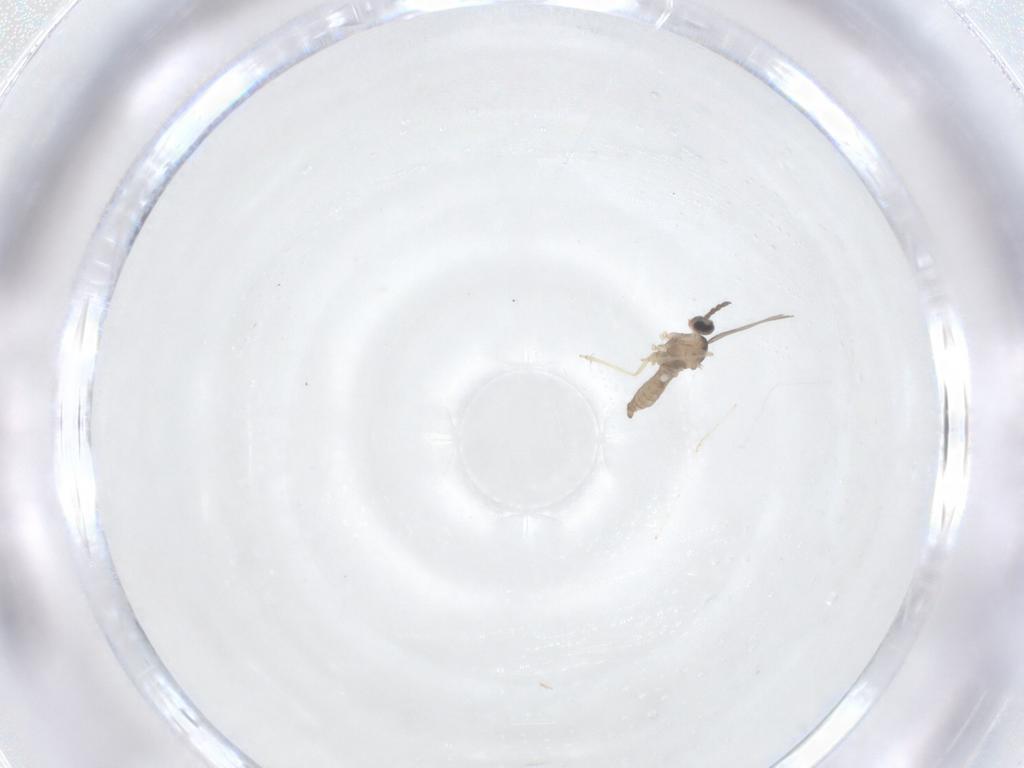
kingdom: Animalia
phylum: Arthropoda
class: Insecta
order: Diptera
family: Cecidomyiidae
